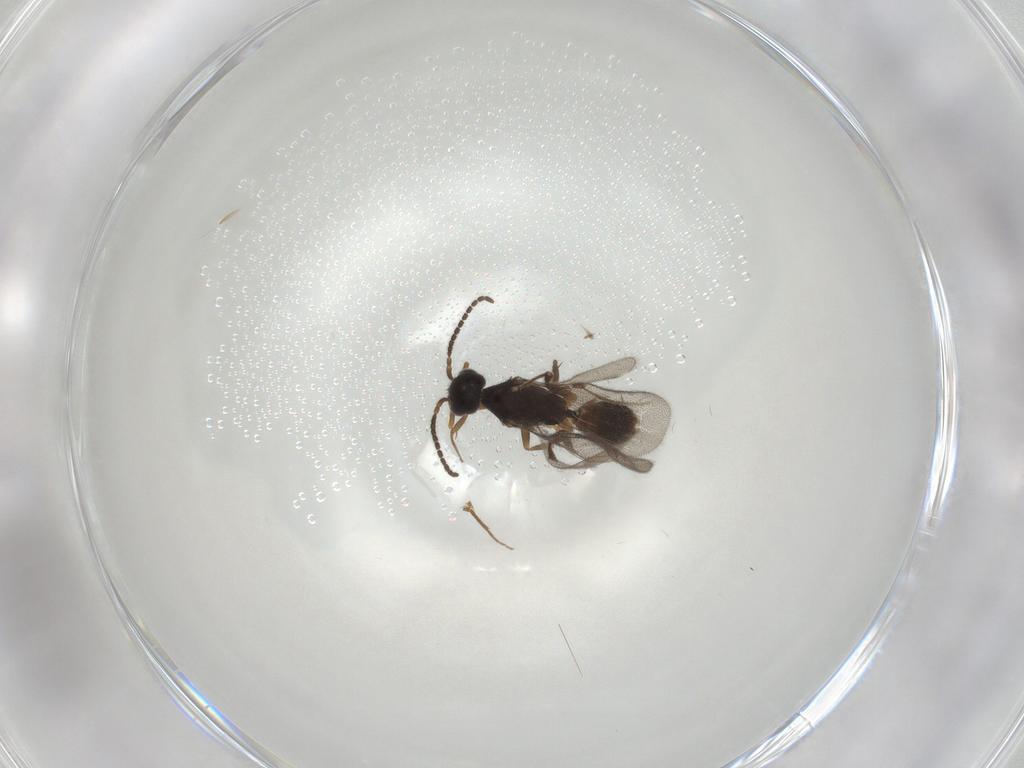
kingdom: Animalia
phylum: Arthropoda
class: Insecta
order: Hymenoptera
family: Bethylidae
